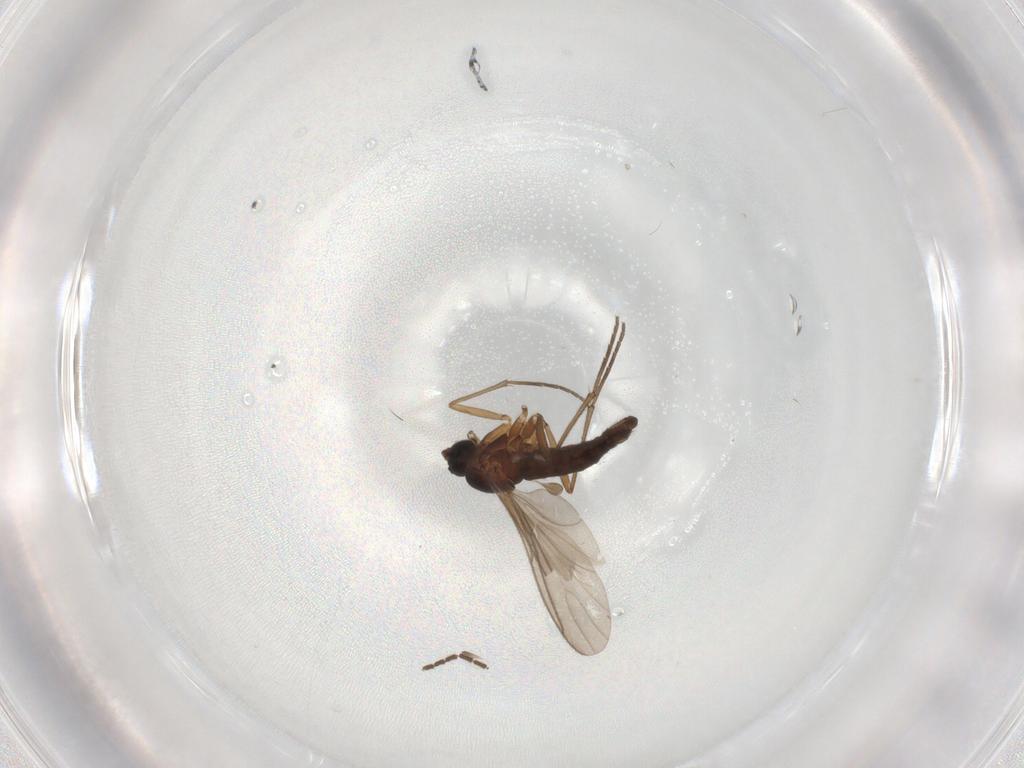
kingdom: Animalia
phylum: Arthropoda
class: Insecta
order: Diptera
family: Sciaridae
